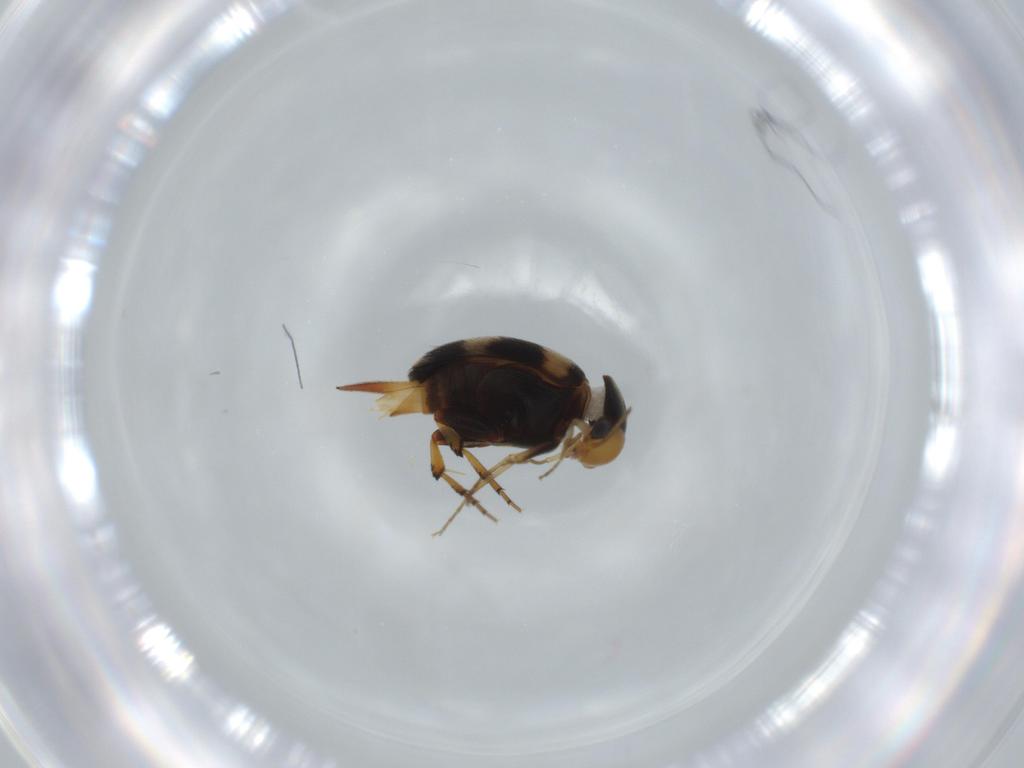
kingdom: Animalia
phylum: Arthropoda
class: Insecta
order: Coleoptera
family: Mordellidae
